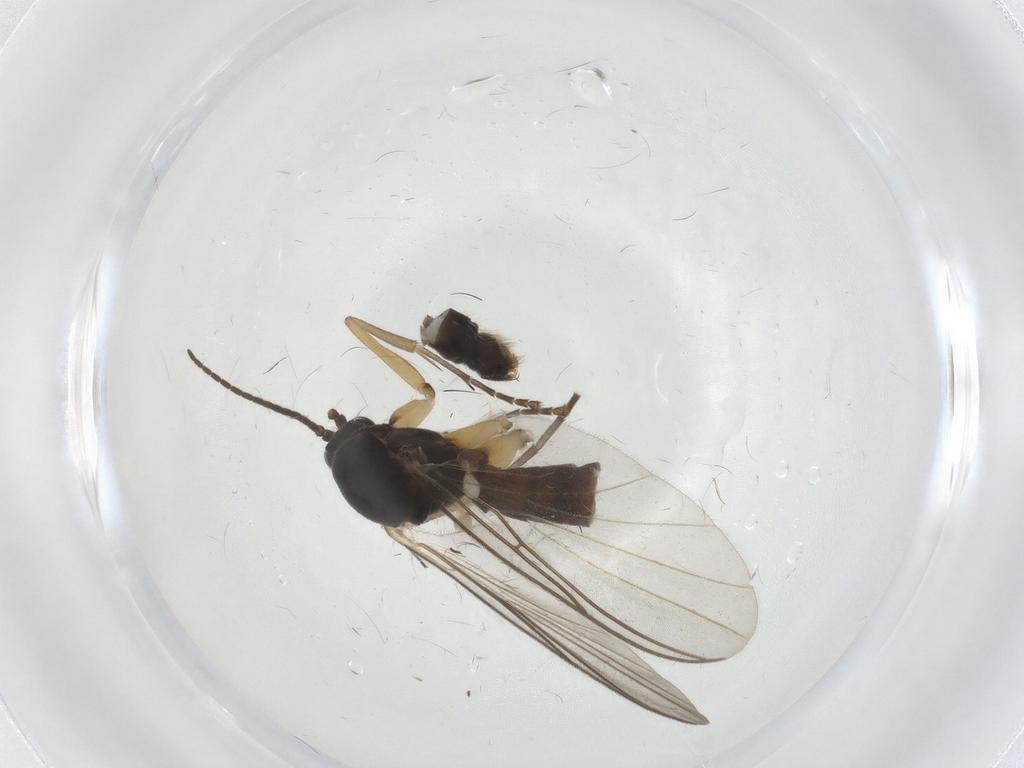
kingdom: Animalia
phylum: Arthropoda
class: Insecta
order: Diptera
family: Mycetophilidae
